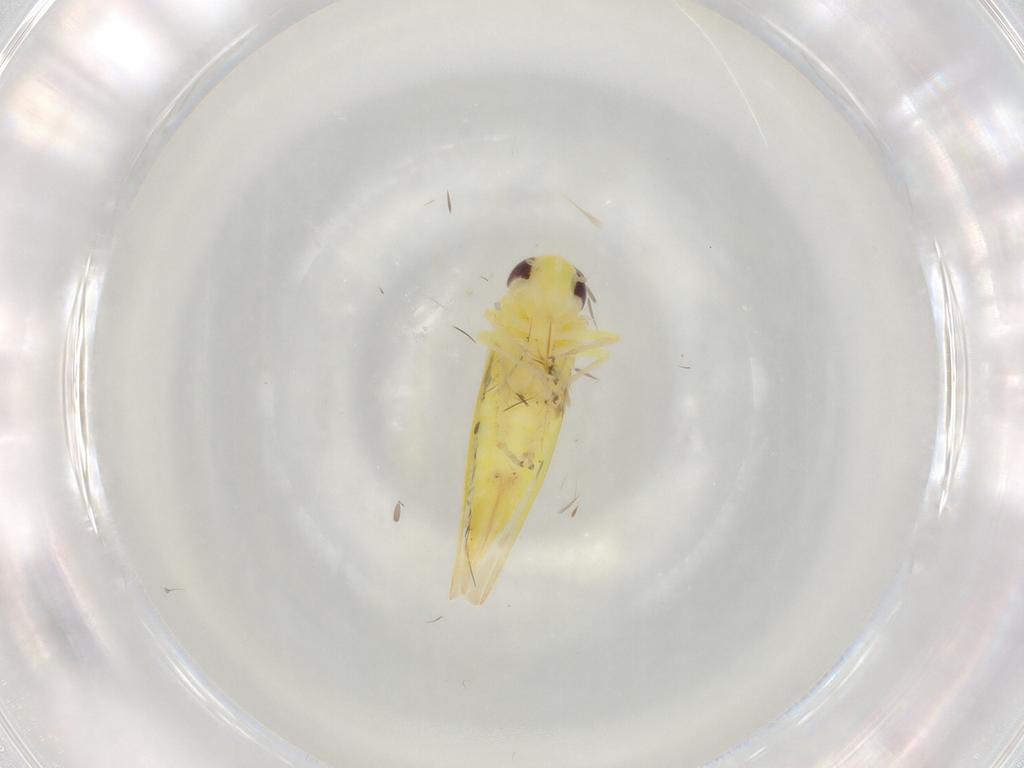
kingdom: Animalia
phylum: Arthropoda
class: Insecta
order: Hemiptera
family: Cicadellidae
